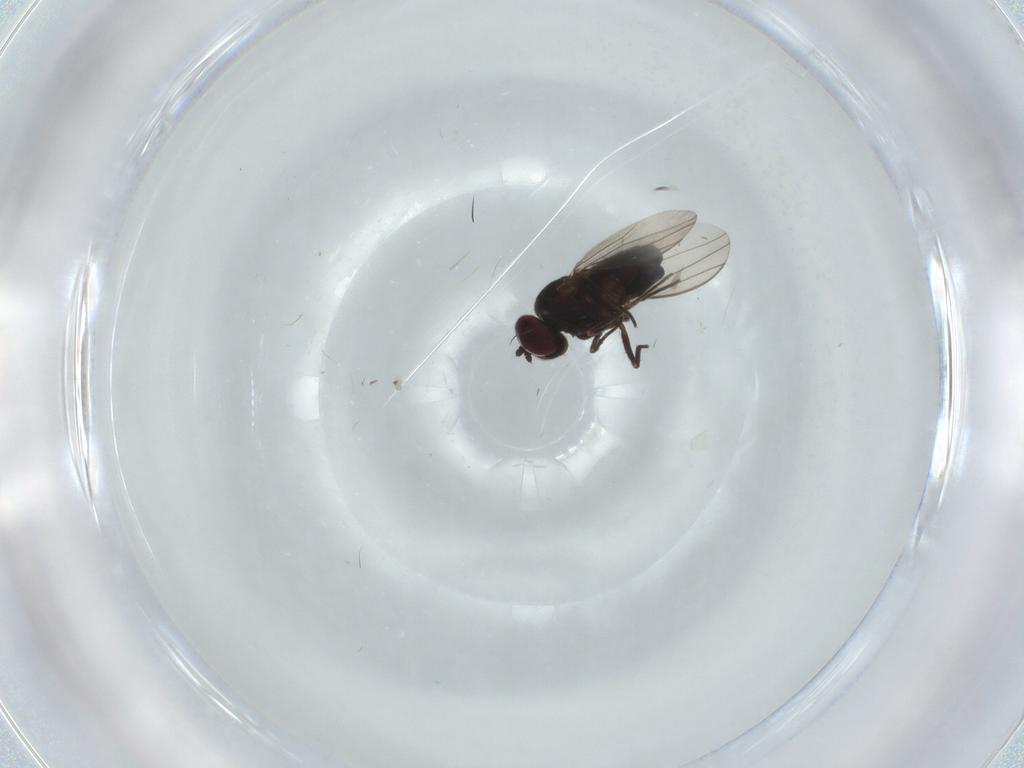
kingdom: Animalia
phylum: Arthropoda
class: Insecta
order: Diptera
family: Dolichopodidae
